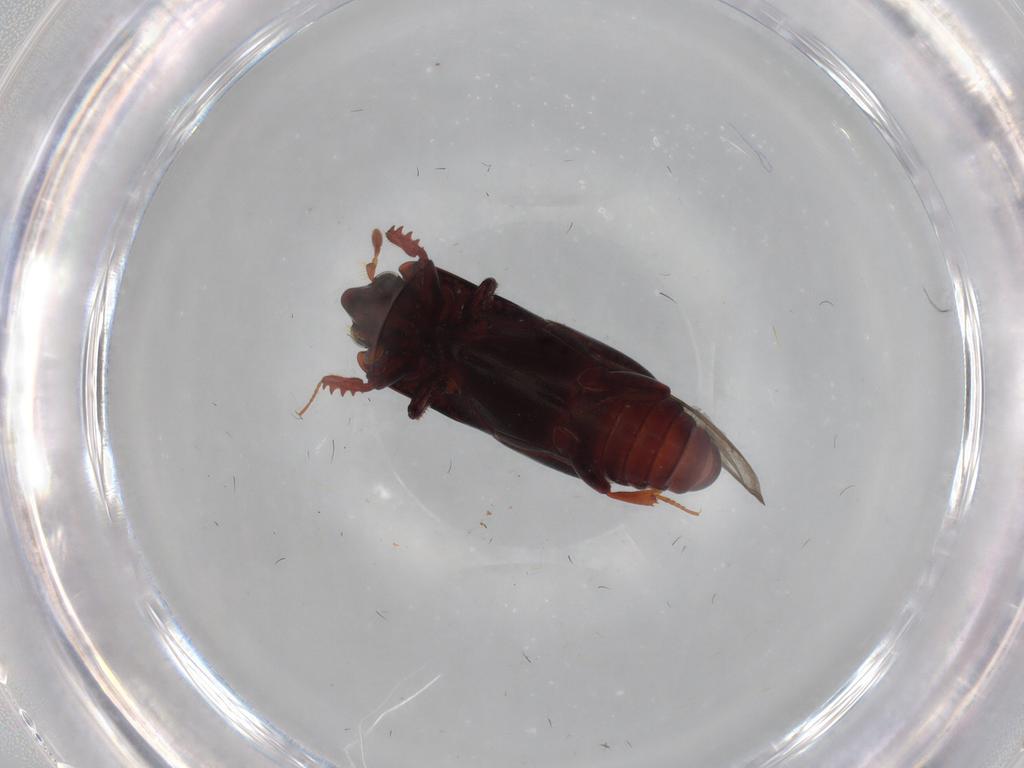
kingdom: Animalia
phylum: Arthropoda
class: Insecta
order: Coleoptera
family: Histeridae
